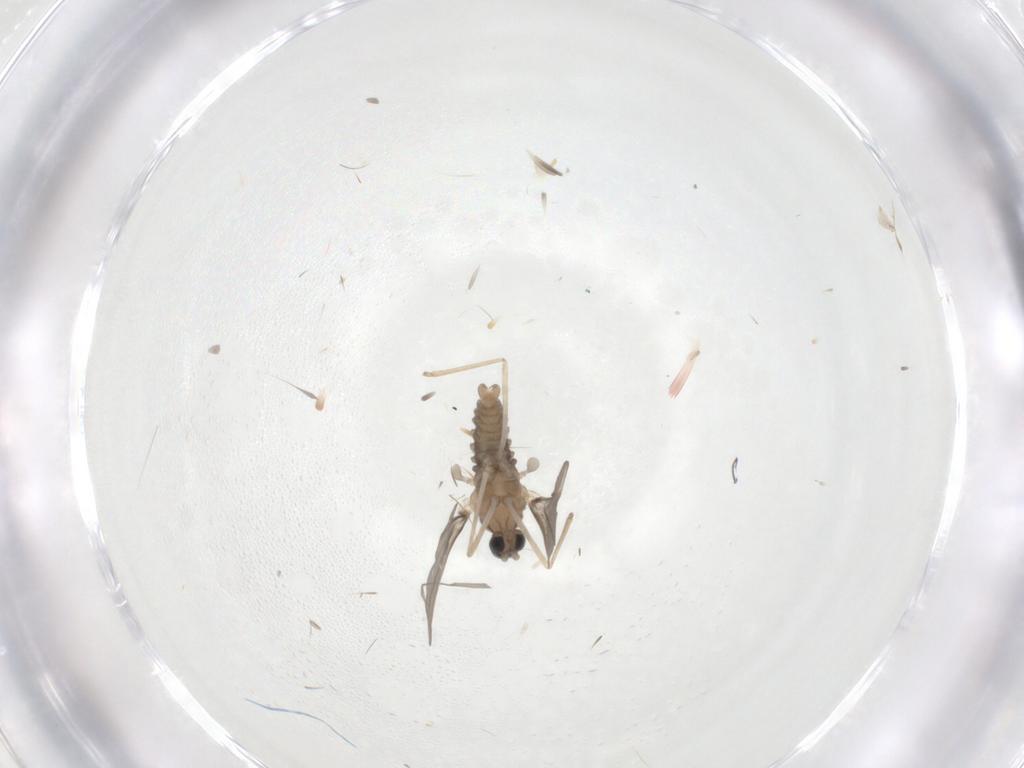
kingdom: Animalia
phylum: Arthropoda
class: Insecta
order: Diptera
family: Cecidomyiidae
